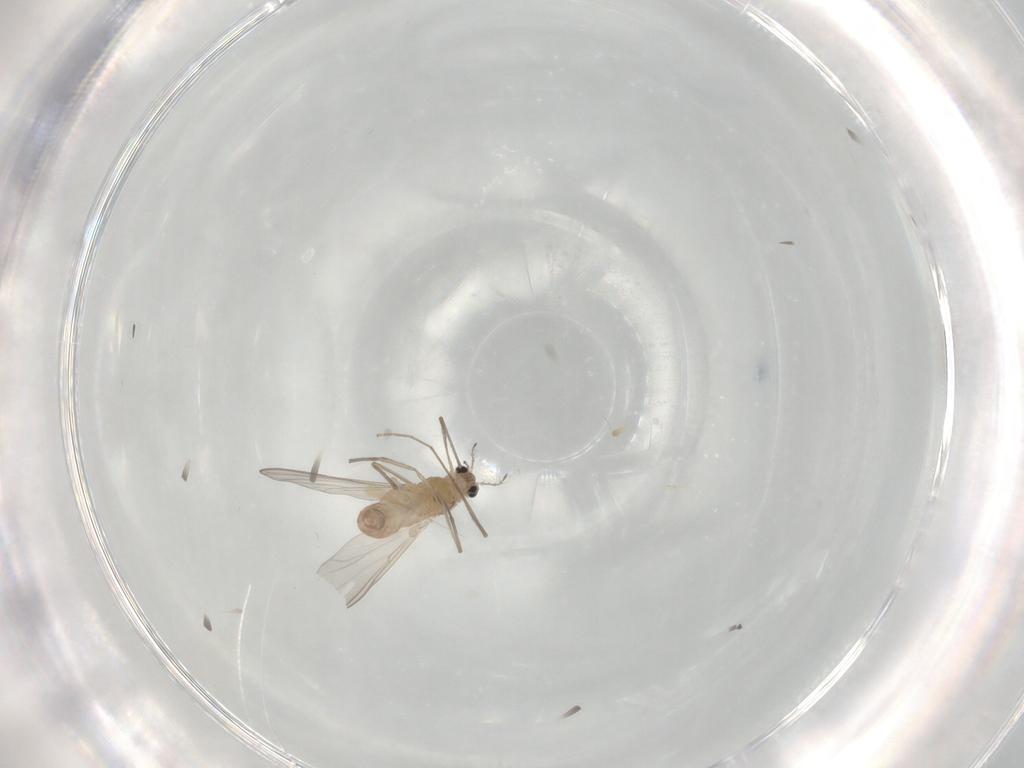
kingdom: Animalia
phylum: Arthropoda
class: Insecta
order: Diptera
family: Chironomidae
